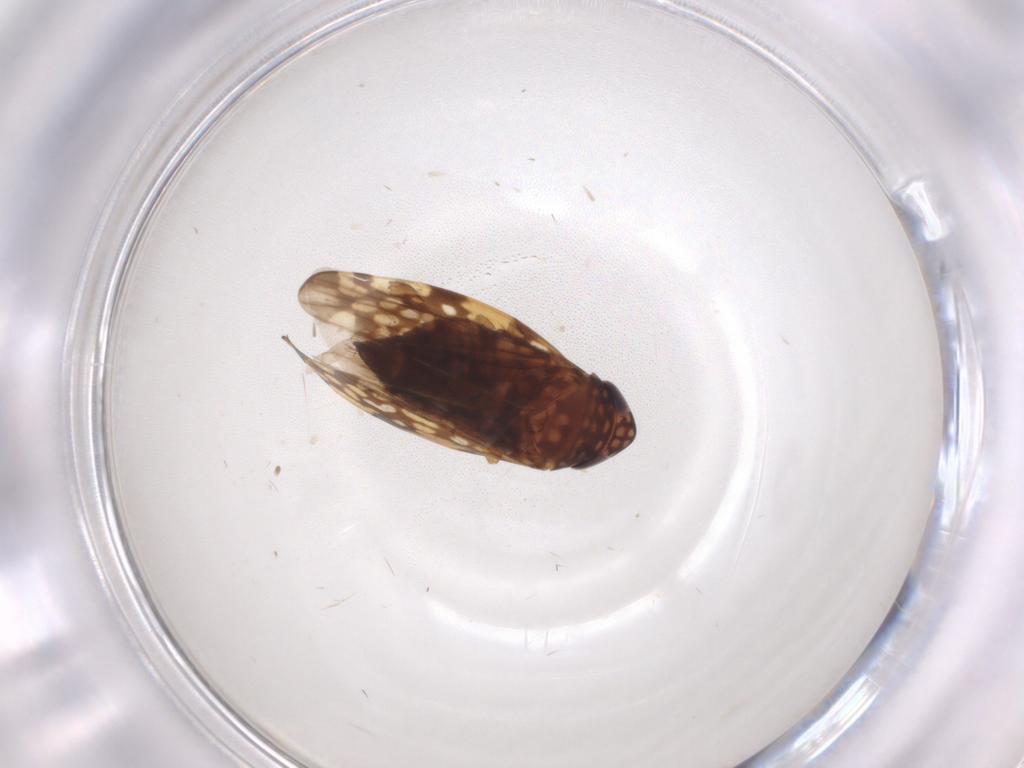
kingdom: Animalia
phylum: Arthropoda
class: Insecta
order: Hemiptera
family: Cicadellidae
